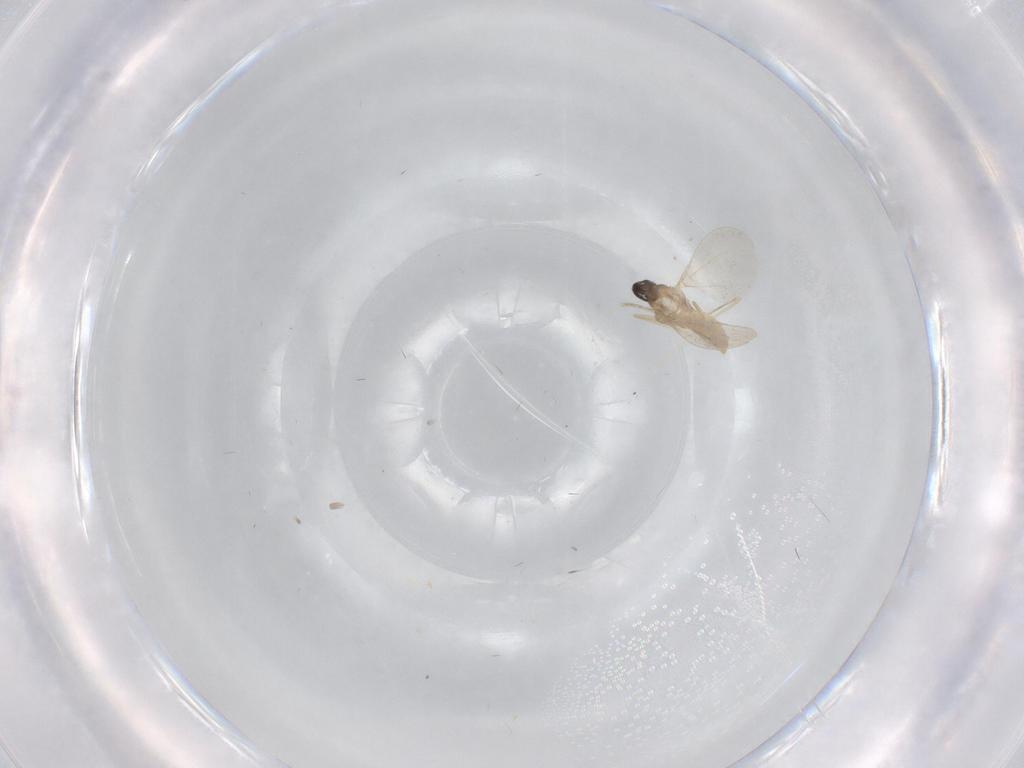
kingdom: Animalia
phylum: Arthropoda
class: Insecta
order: Diptera
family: Cecidomyiidae
